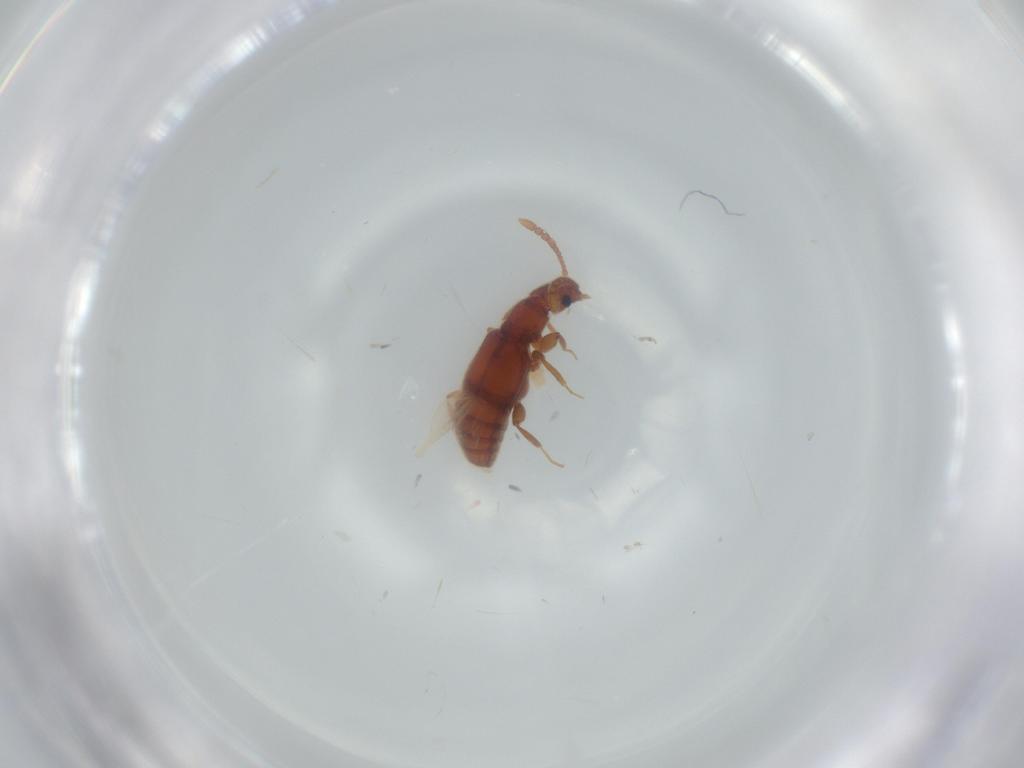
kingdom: Animalia
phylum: Arthropoda
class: Insecta
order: Coleoptera
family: Staphylinidae
